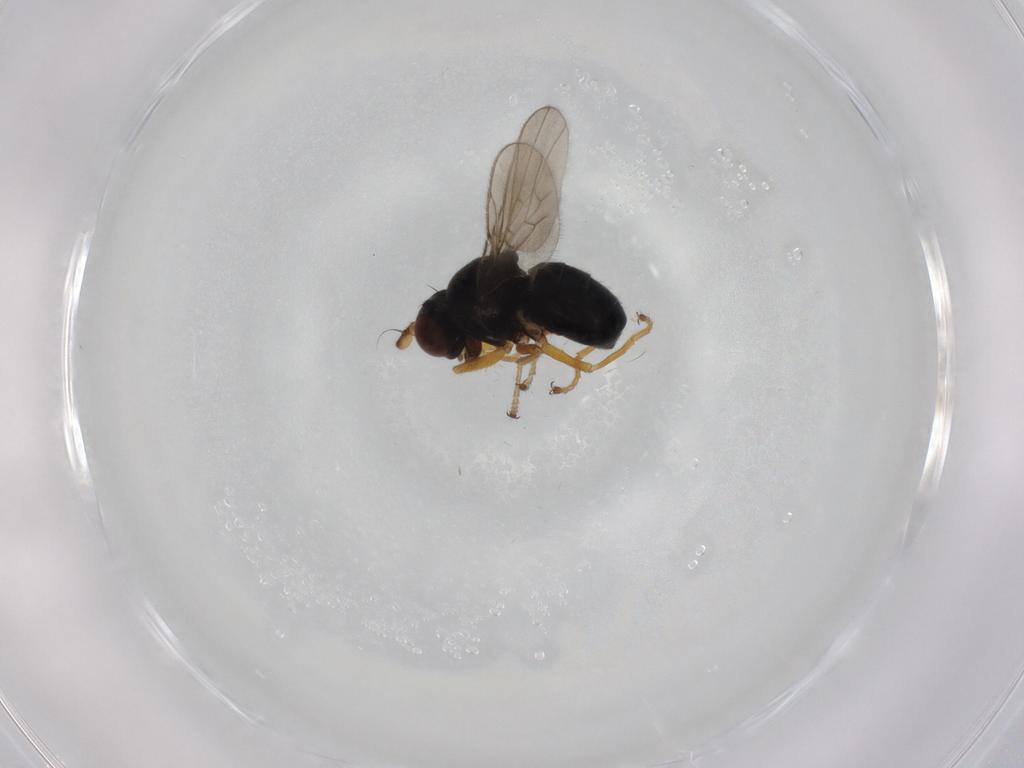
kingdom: Animalia
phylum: Arthropoda
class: Insecta
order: Diptera
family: Ephydridae
